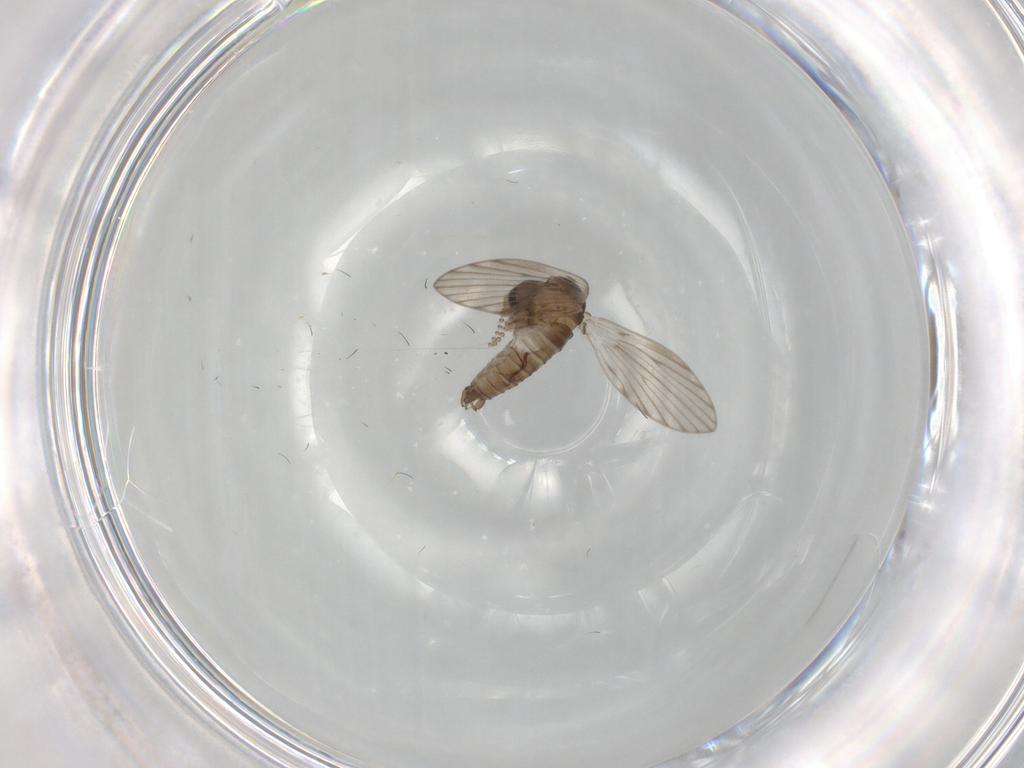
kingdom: Animalia
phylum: Arthropoda
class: Insecta
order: Diptera
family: Psychodidae
